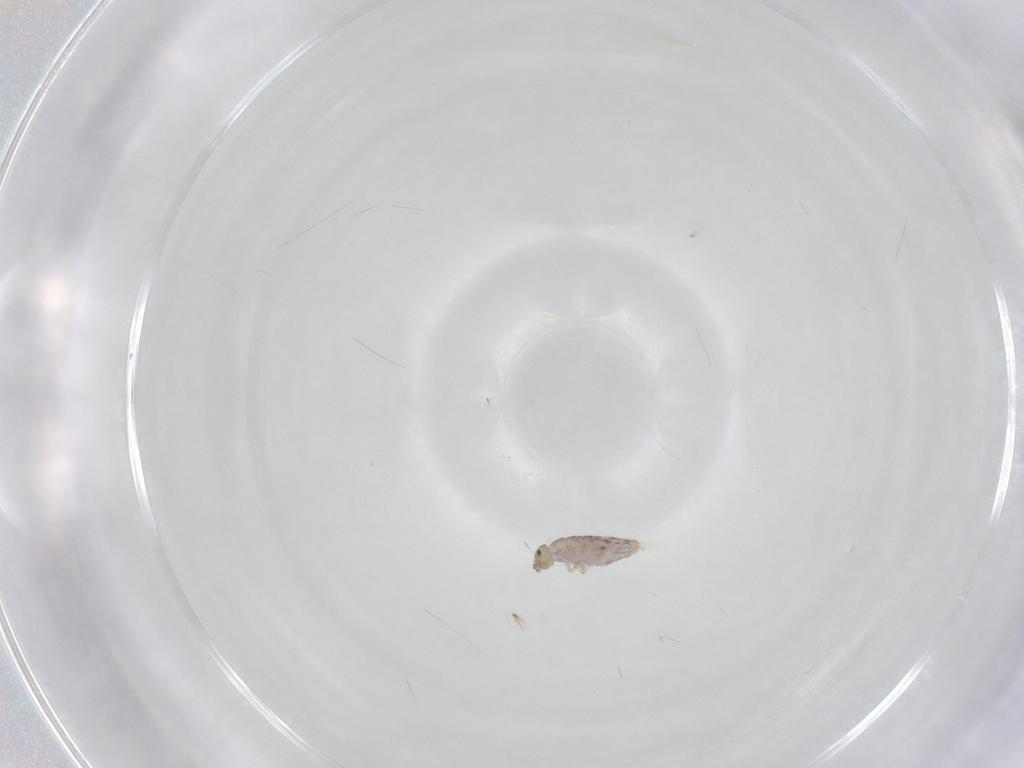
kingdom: Animalia
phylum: Arthropoda
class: Collembola
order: Entomobryomorpha
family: Entomobryidae
